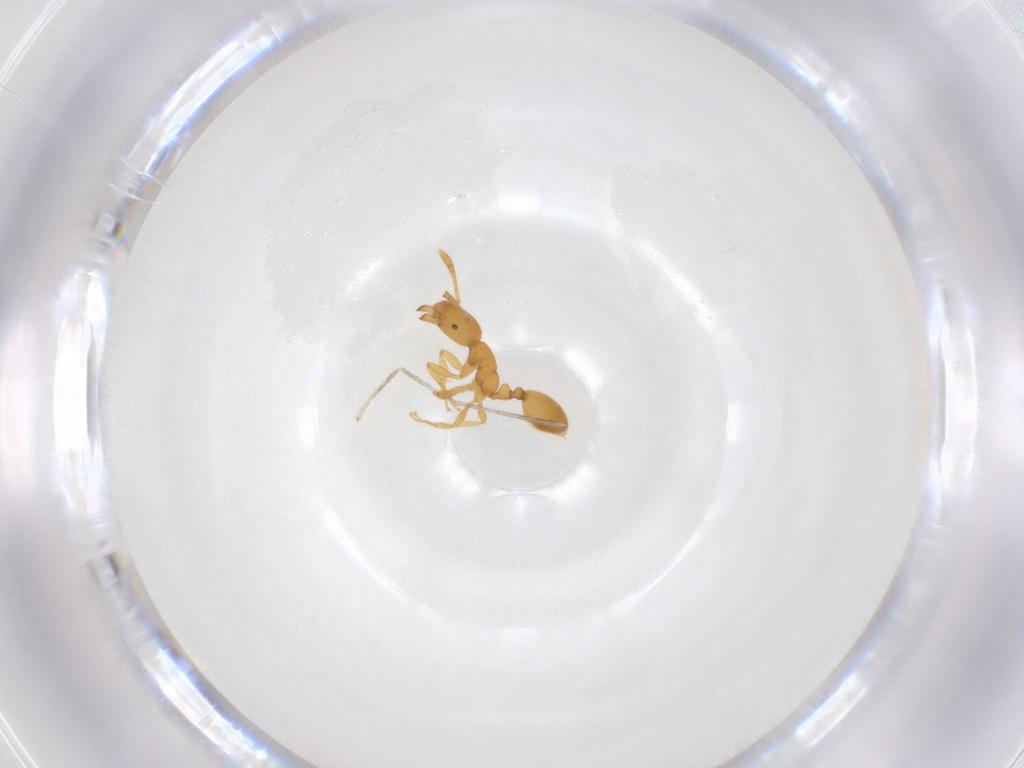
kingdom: Animalia
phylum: Arthropoda
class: Insecta
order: Hymenoptera
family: Formicidae
